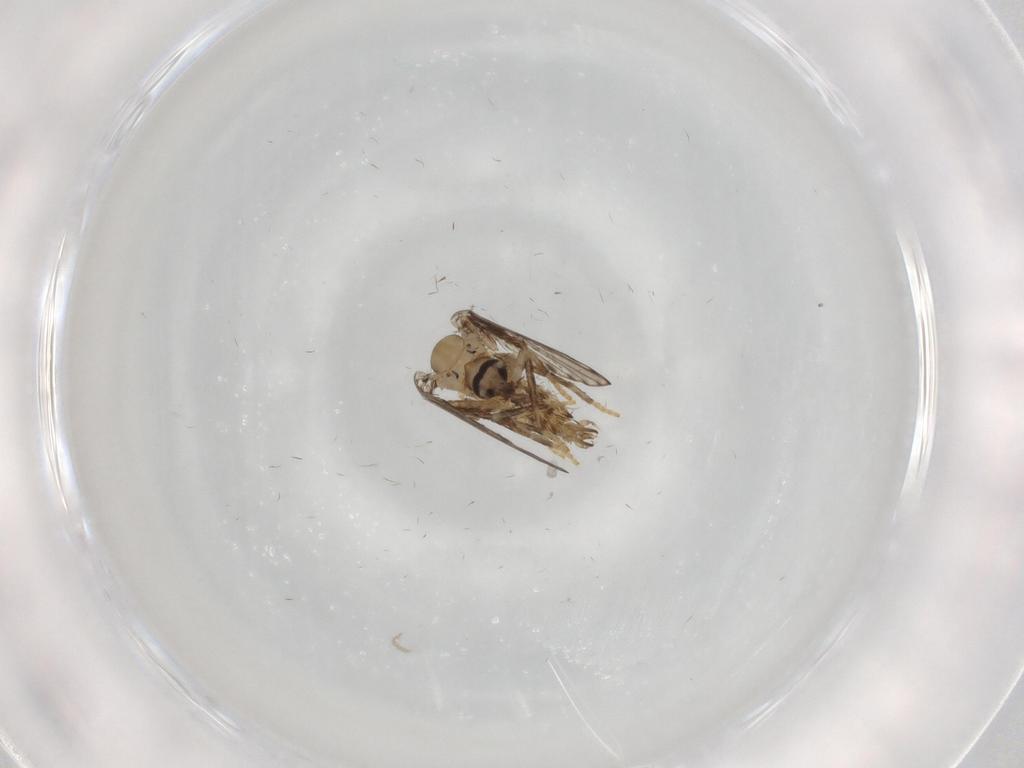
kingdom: Animalia
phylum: Arthropoda
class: Insecta
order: Diptera
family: Psychodidae
